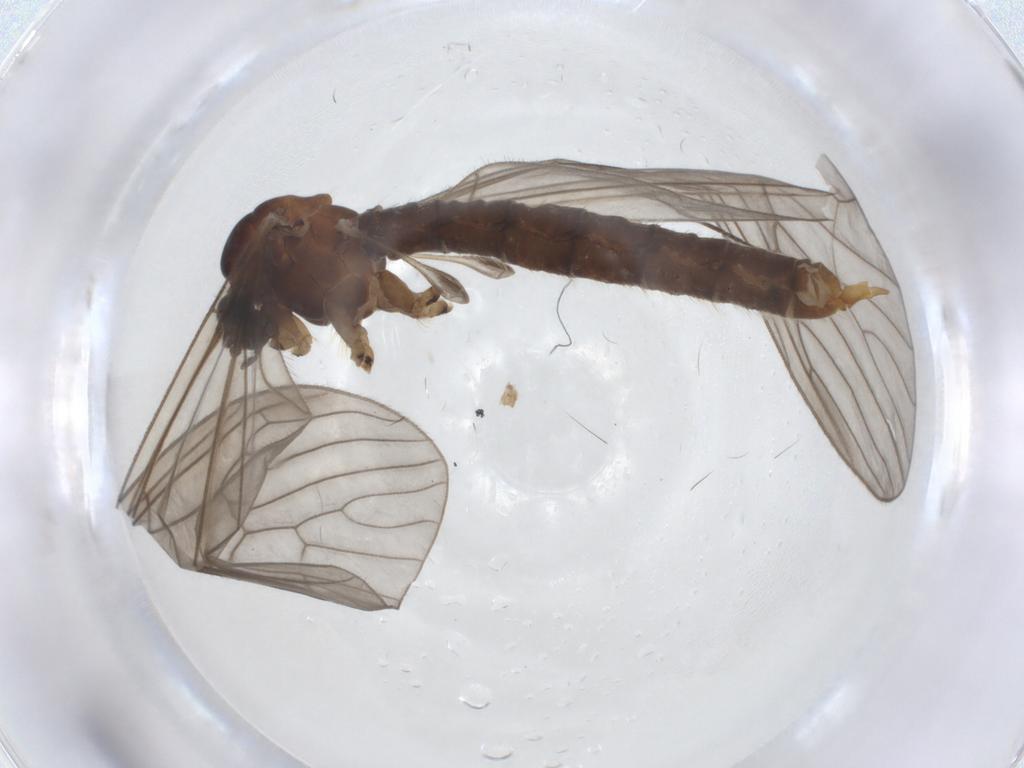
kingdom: Animalia
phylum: Arthropoda
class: Insecta
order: Diptera
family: Trichoceridae
